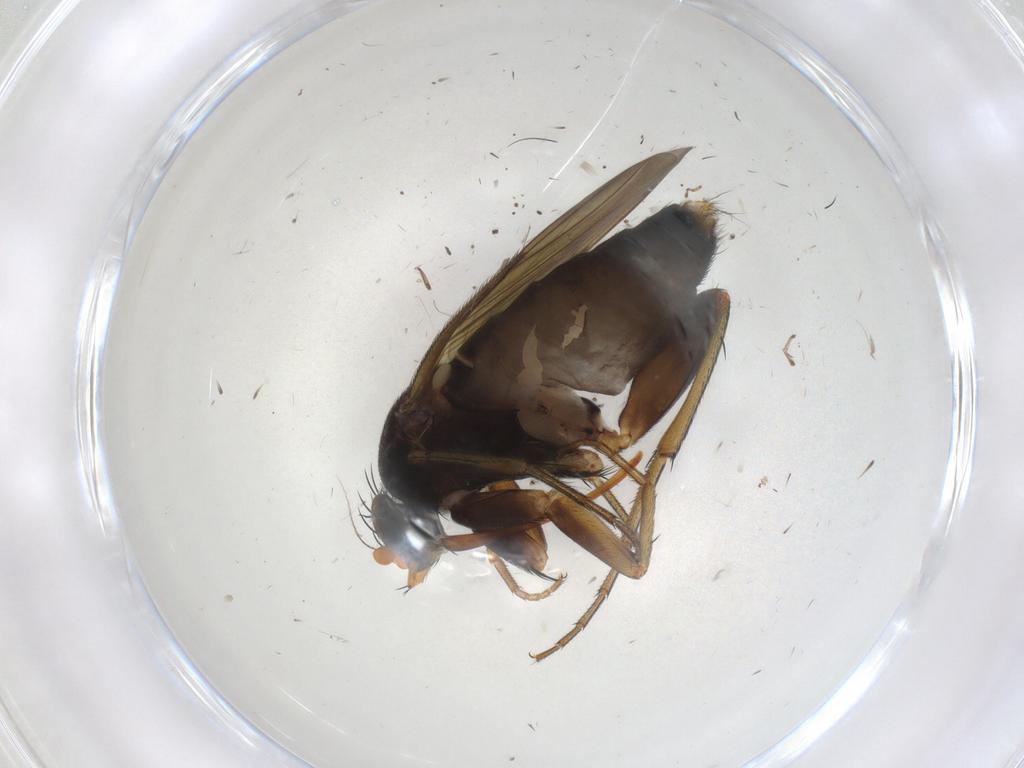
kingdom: Animalia
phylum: Arthropoda
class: Insecta
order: Diptera
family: Phoridae
